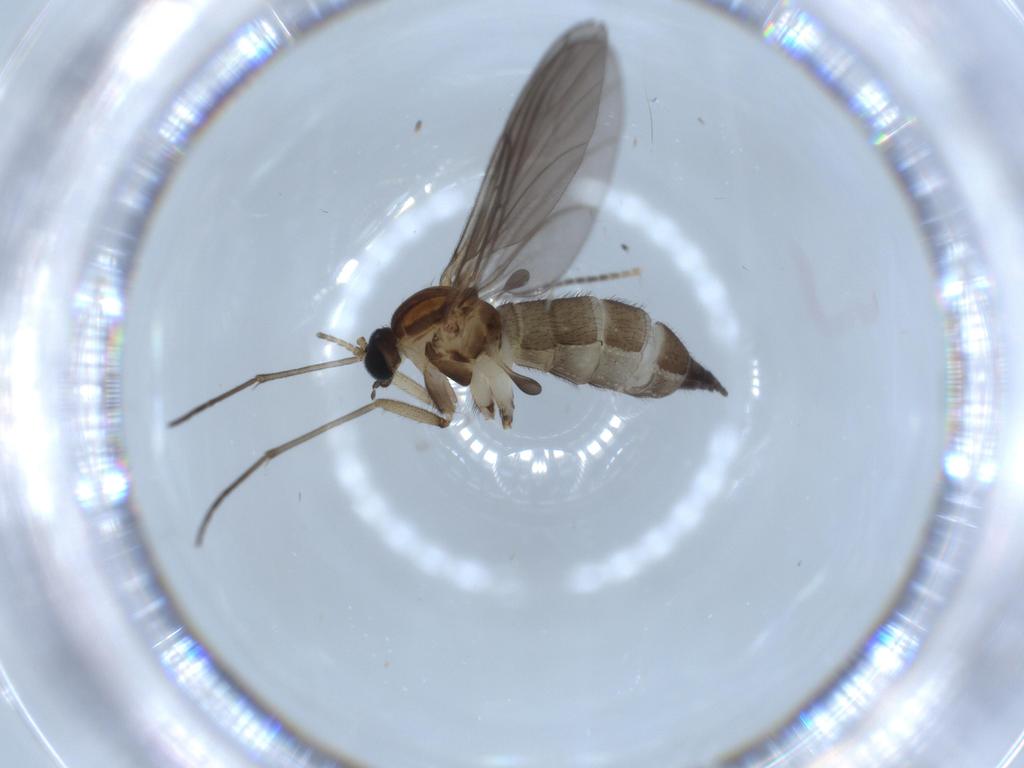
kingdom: Animalia
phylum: Arthropoda
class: Insecta
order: Diptera
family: Sciaridae
